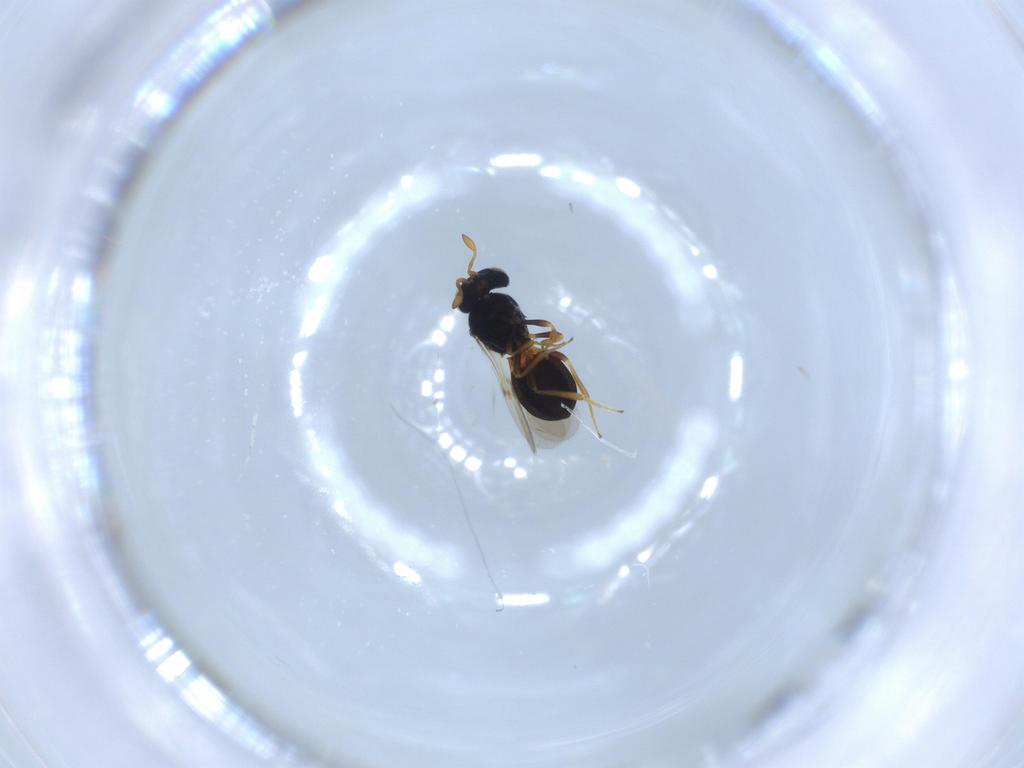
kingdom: Animalia
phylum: Arthropoda
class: Insecta
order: Hymenoptera
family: Scelionidae
